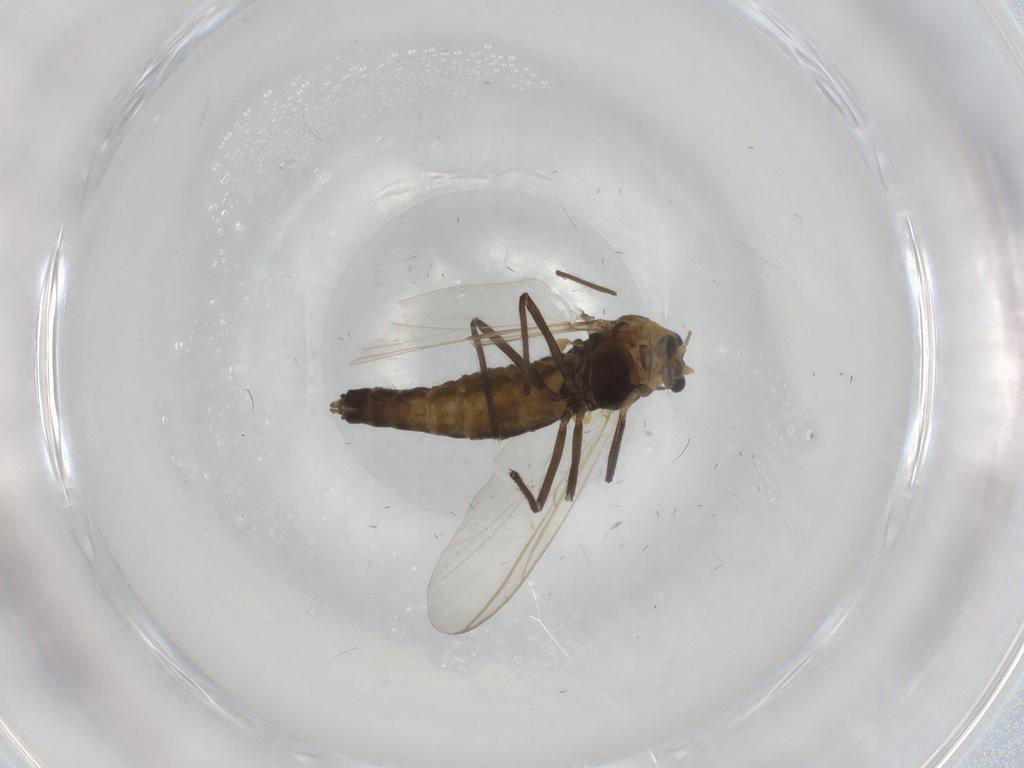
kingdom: Animalia
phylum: Arthropoda
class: Insecta
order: Diptera
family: Chironomidae
